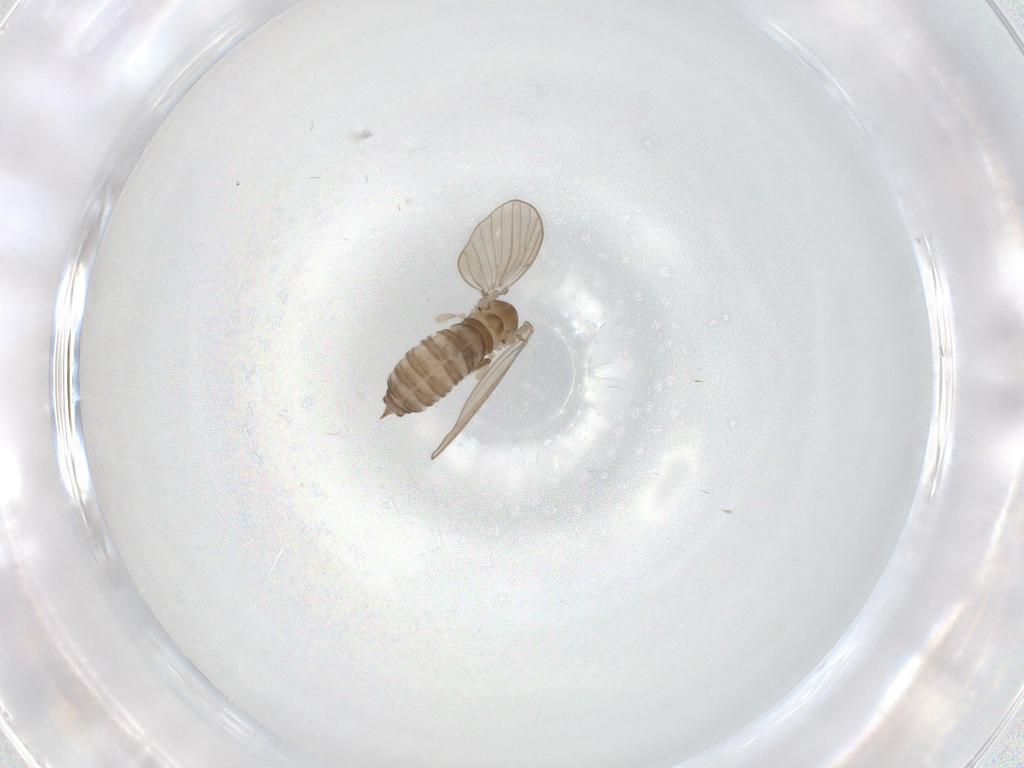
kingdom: Animalia
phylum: Arthropoda
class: Insecta
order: Diptera
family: Psychodidae
